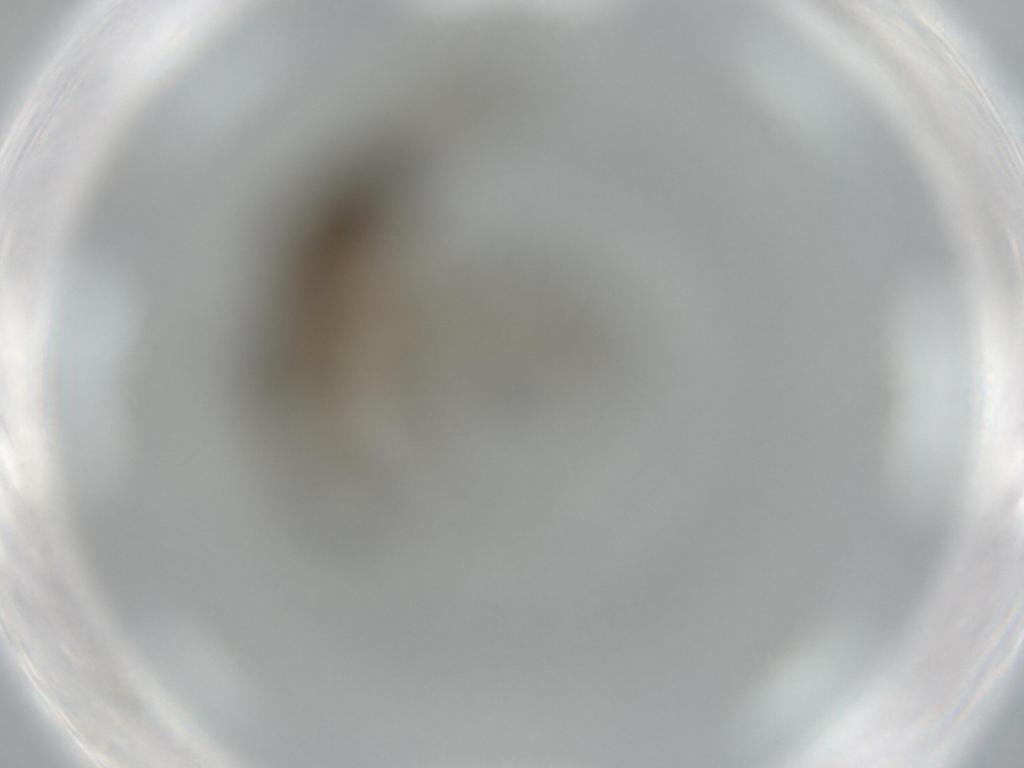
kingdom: Animalia
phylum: Arthropoda
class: Insecta
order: Diptera
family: Phoridae
